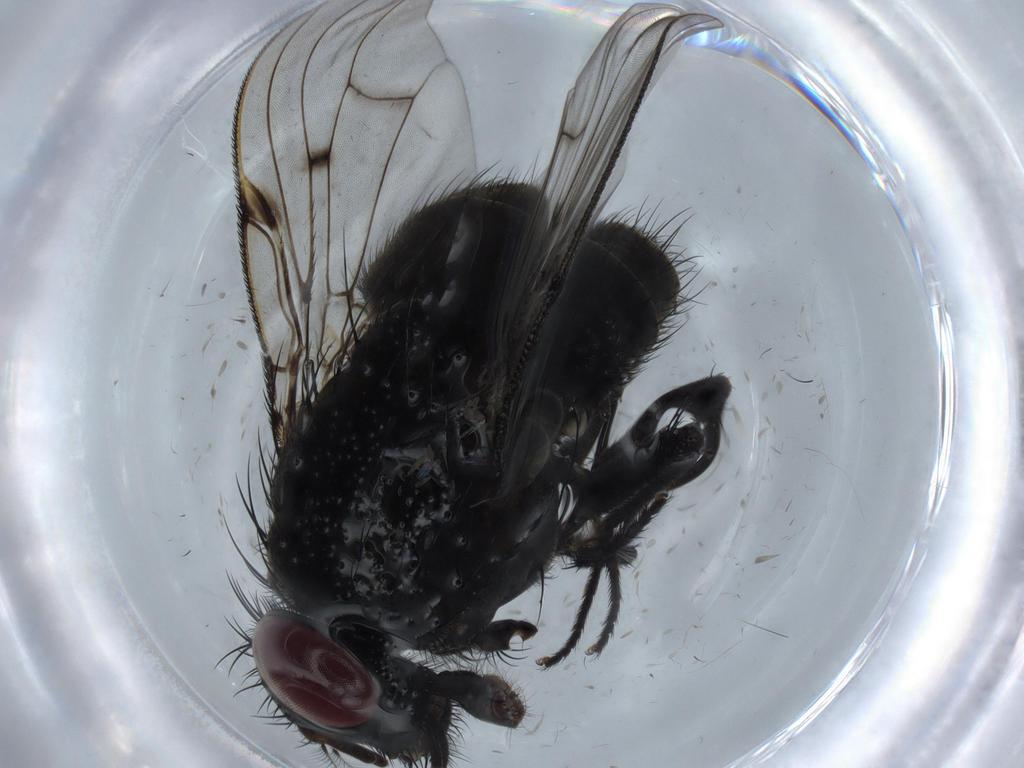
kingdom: Animalia
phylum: Arthropoda
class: Insecta
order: Diptera
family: Muscidae
